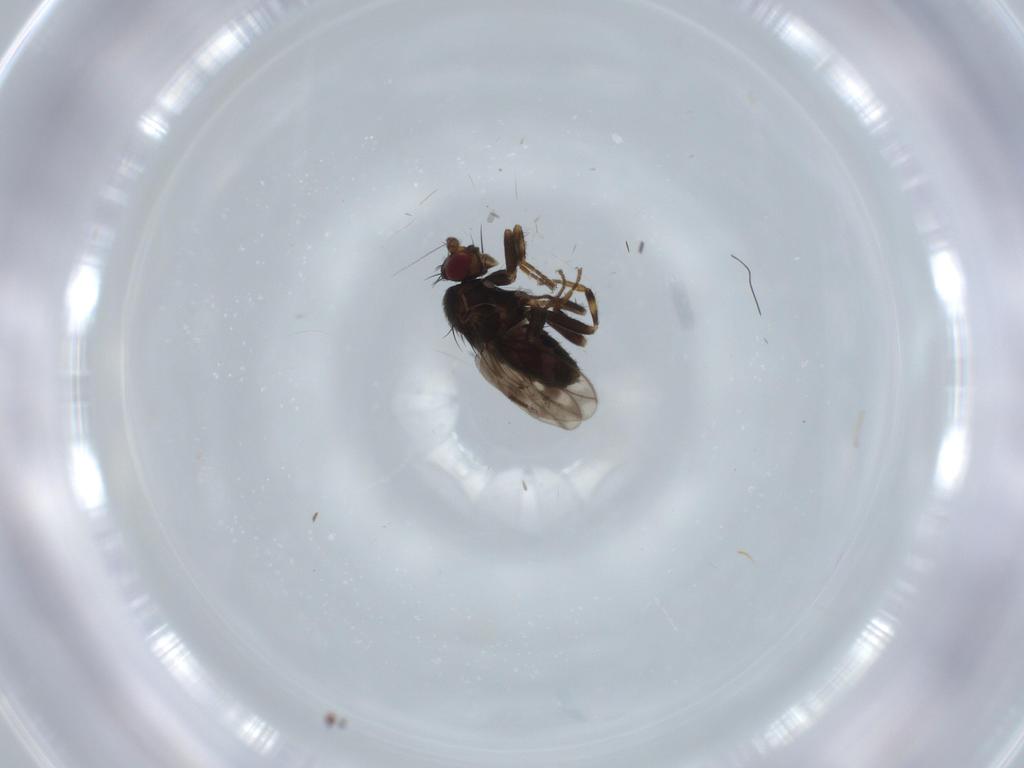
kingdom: Animalia
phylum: Arthropoda
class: Insecta
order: Diptera
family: Sphaeroceridae
